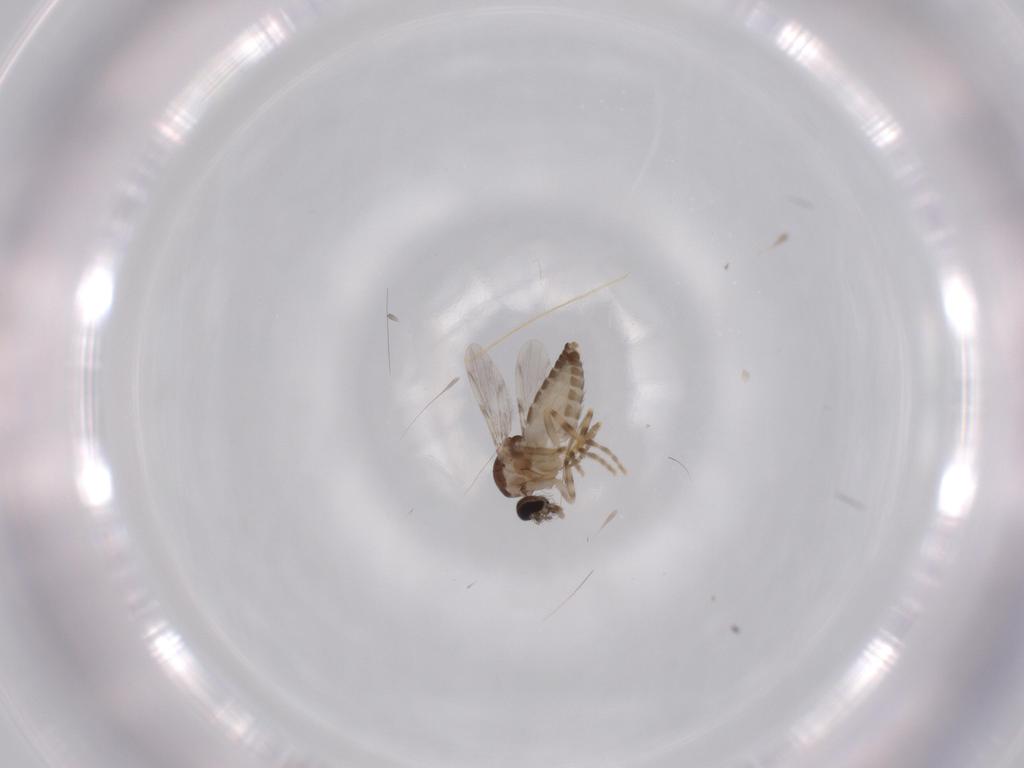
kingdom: Animalia
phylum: Arthropoda
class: Insecta
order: Diptera
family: Ceratopogonidae
